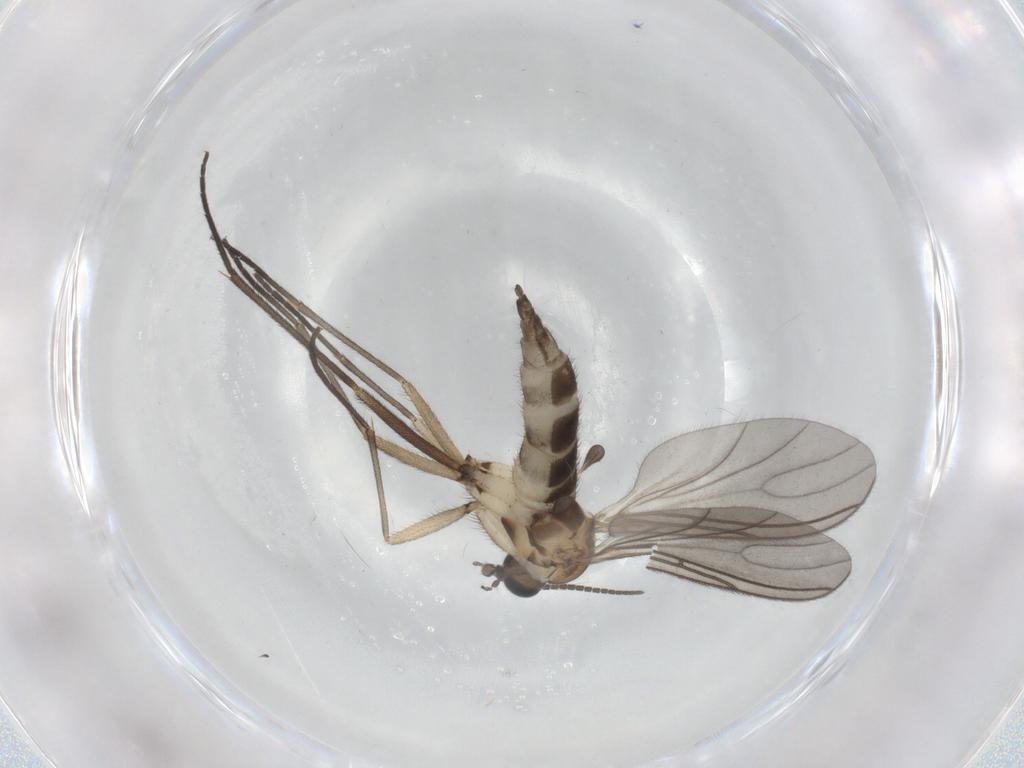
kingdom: Animalia
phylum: Arthropoda
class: Insecta
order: Diptera
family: Sciaridae
